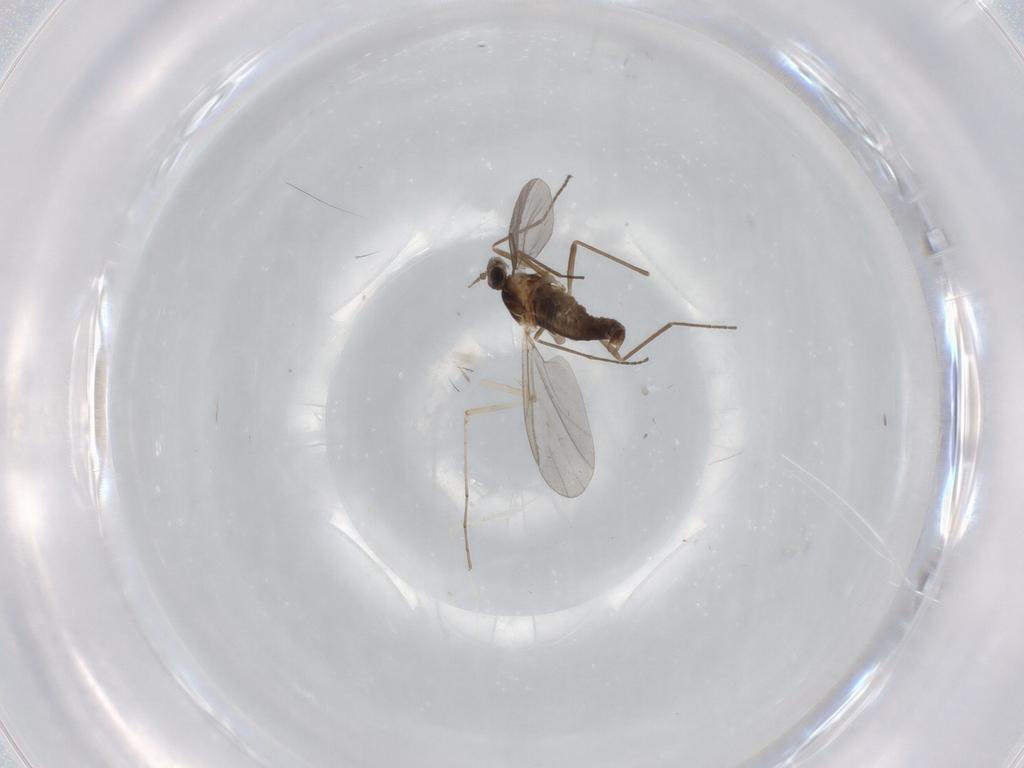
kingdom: Animalia
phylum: Arthropoda
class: Insecta
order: Diptera
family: Cecidomyiidae
